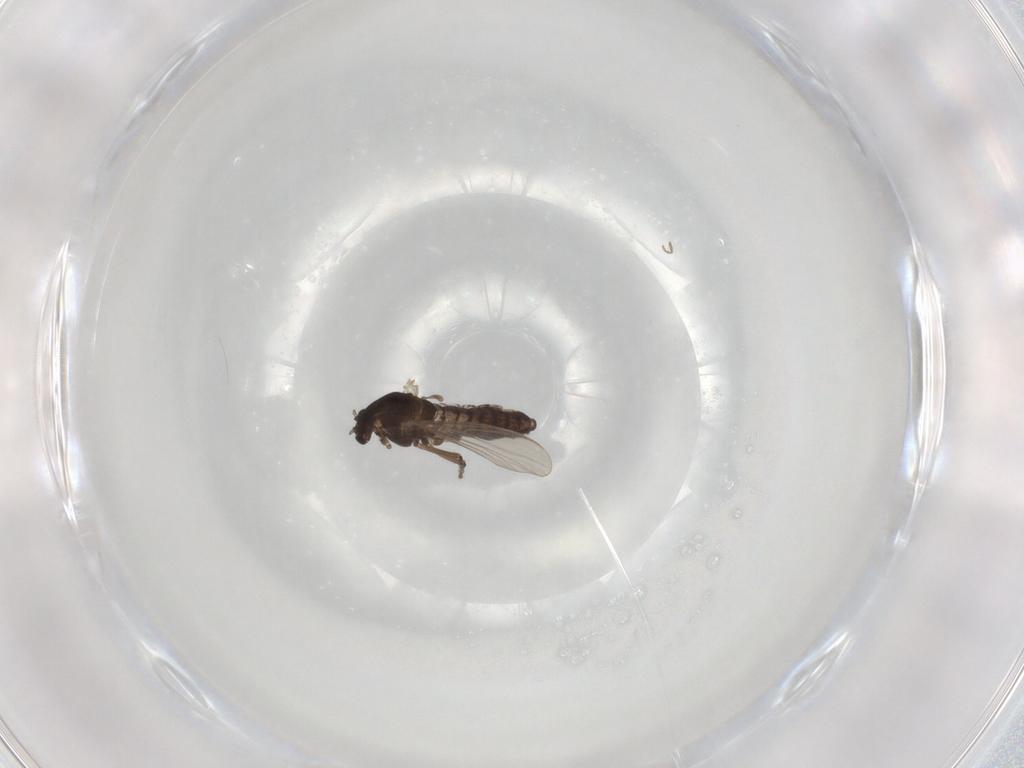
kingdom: Animalia
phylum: Arthropoda
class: Insecta
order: Diptera
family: Chironomidae
